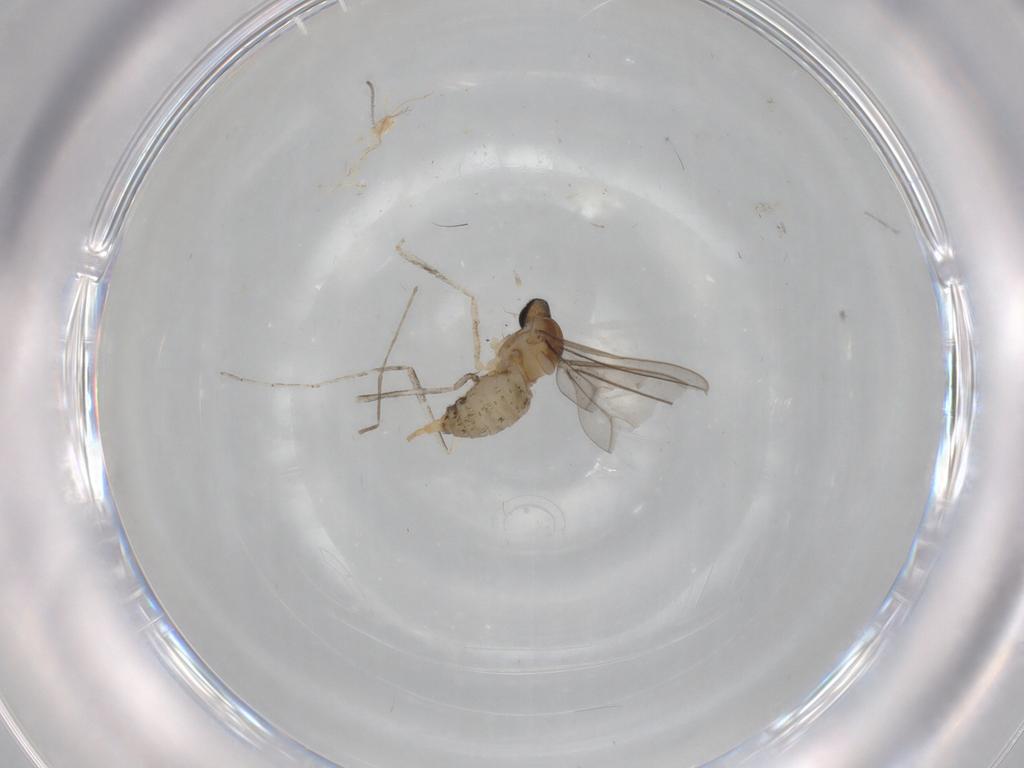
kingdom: Animalia
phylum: Arthropoda
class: Insecta
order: Diptera
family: Cecidomyiidae
